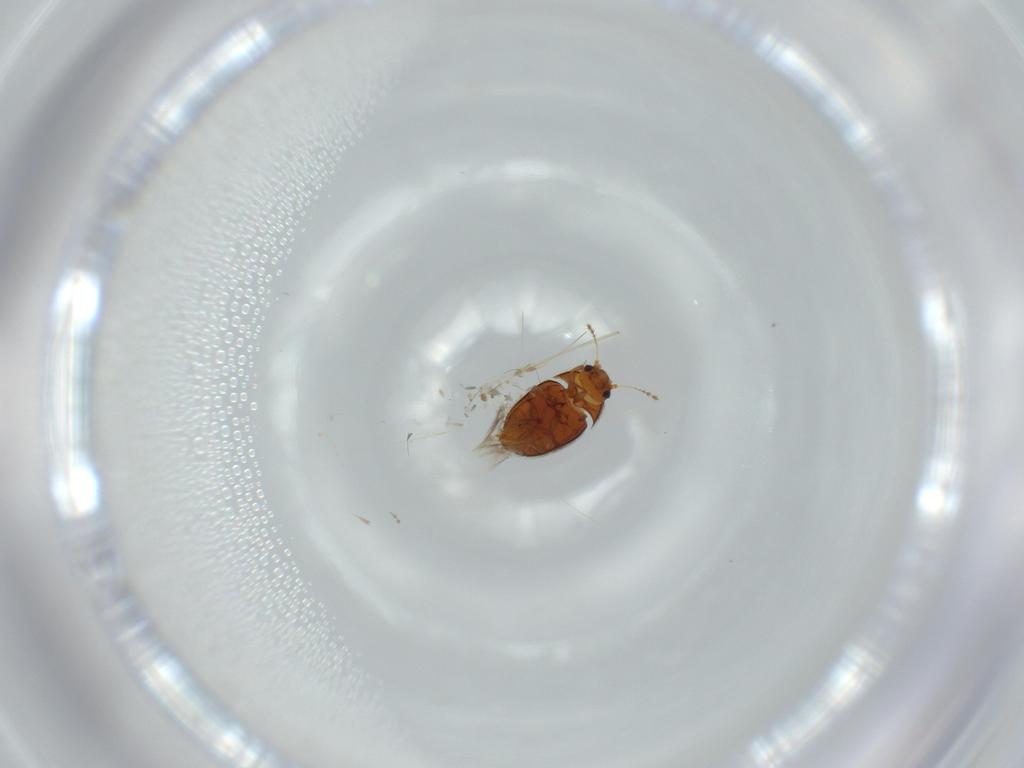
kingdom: Animalia
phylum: Arthropoda
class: Insecta
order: Coleoptera
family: Ptiliidae
